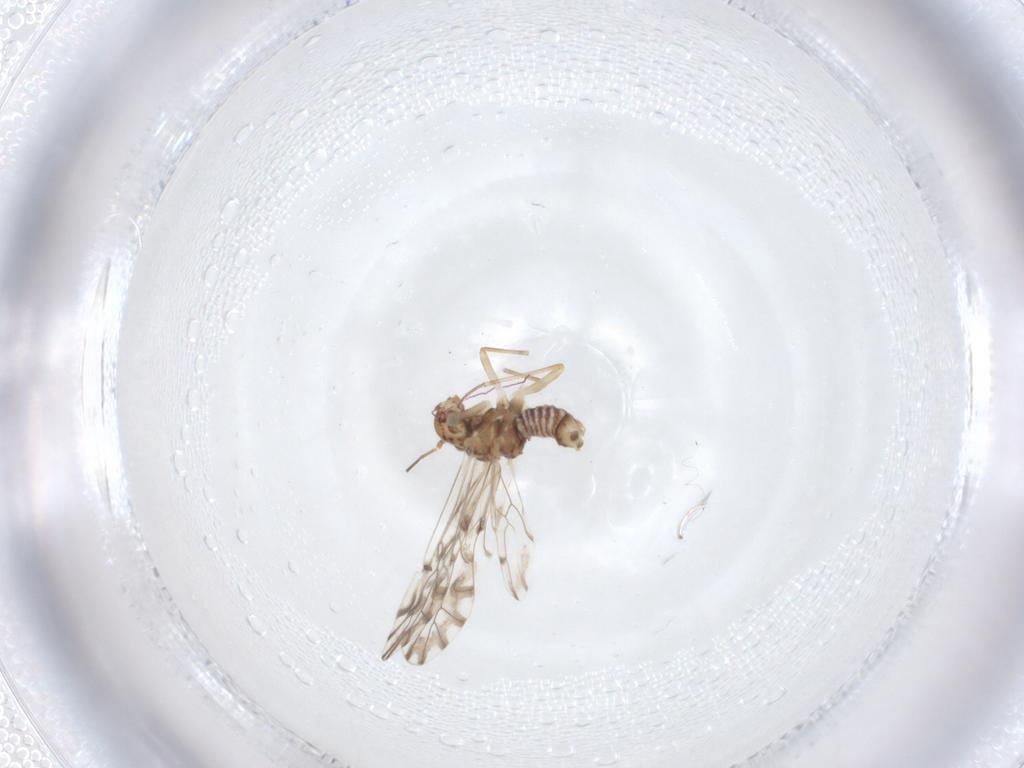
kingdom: Animalia
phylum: Arthropoda
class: Insecta
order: Psocodea
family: Lachesillidae
